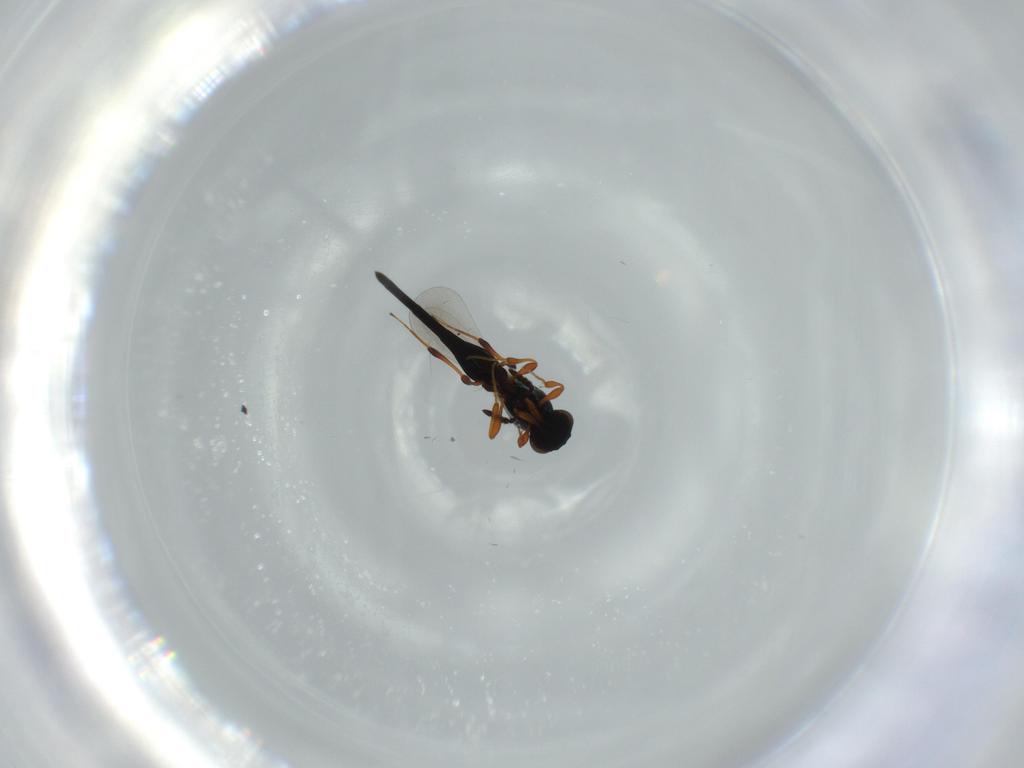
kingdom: Animalia
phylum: Arthropoda
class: Insecta
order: Hymenoptera
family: Platygastridae
